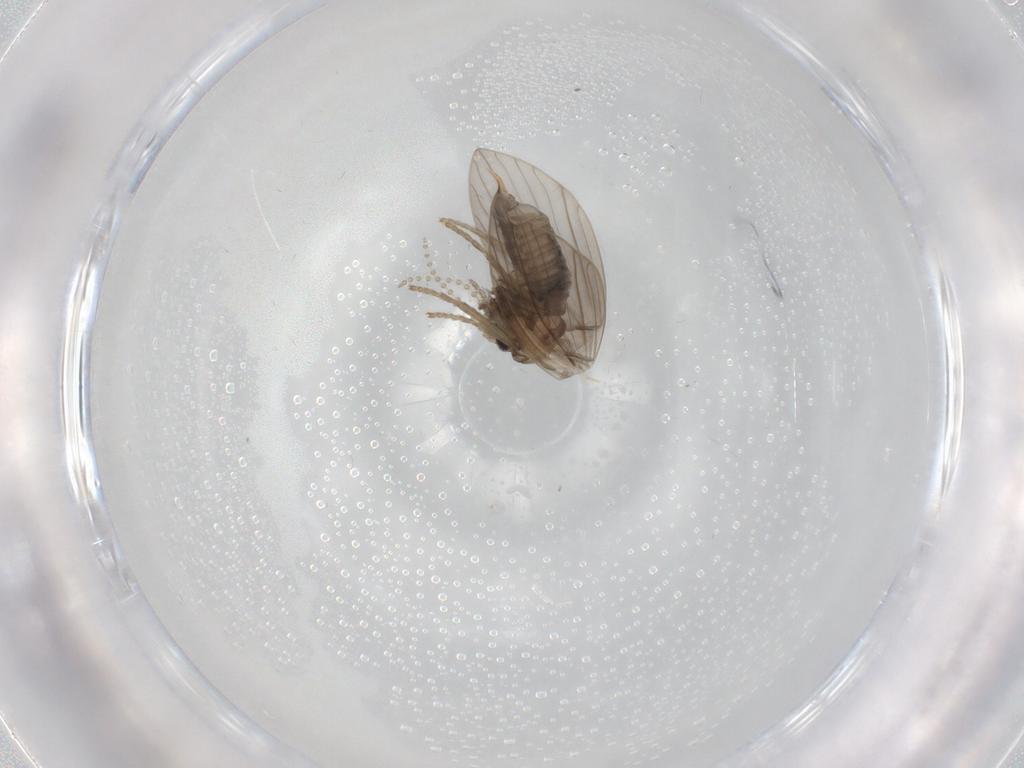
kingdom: Animalia
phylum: Arthropoda
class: Insecta
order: Diptera
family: Psychodidae
